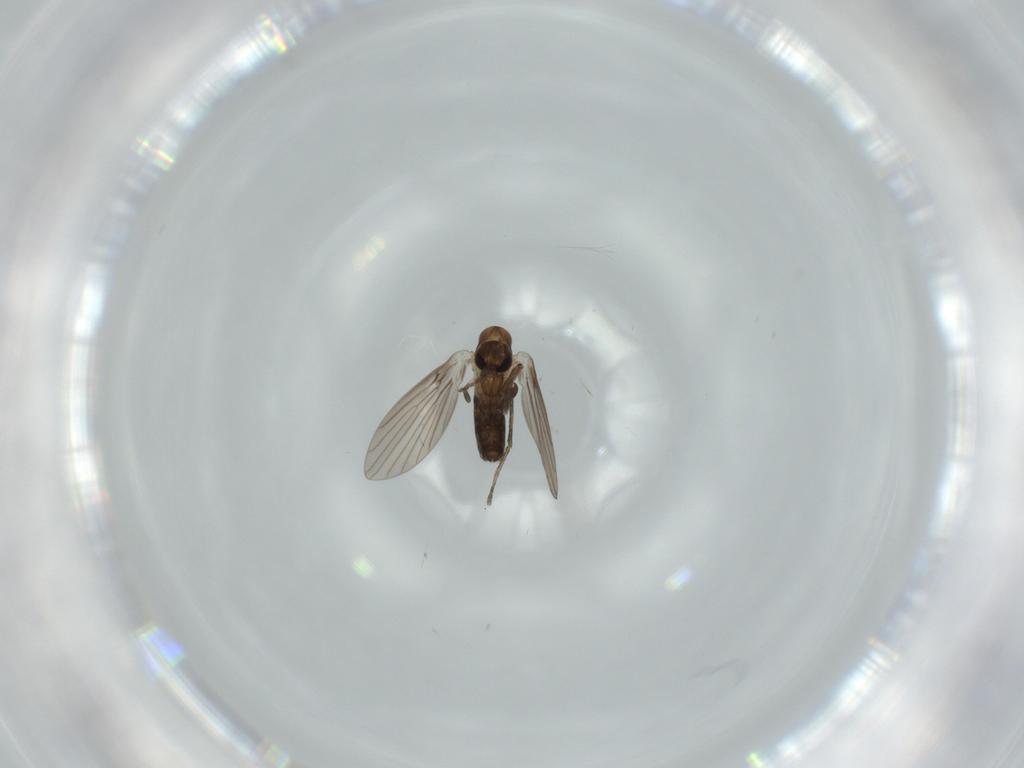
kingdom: Animalia
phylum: Arthropoda
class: Insecta
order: Diptera
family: Psychodidae
